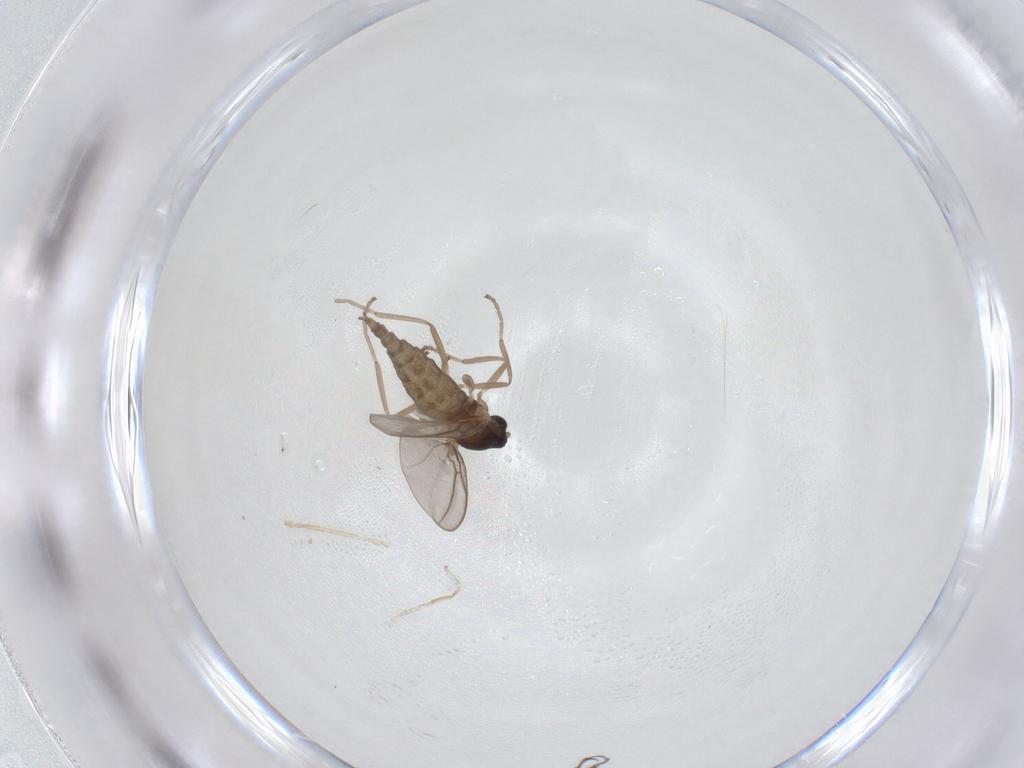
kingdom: Animalia
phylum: Arthropoda
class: Insecta
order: Diptera
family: Cecidomyiidae
